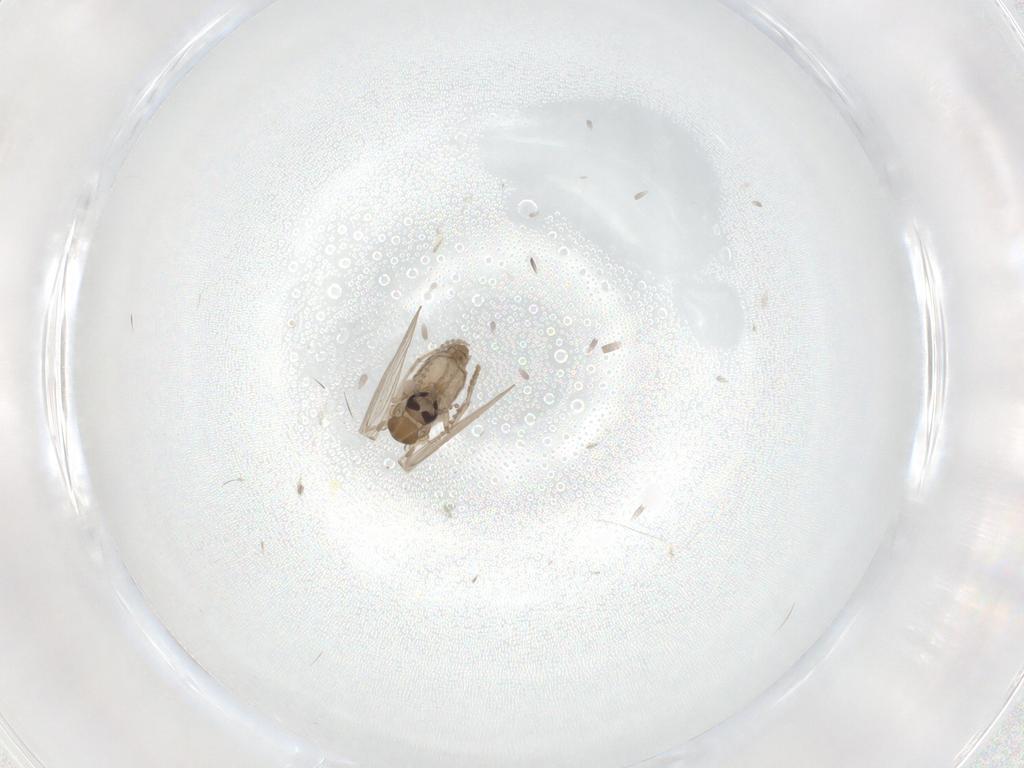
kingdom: Animalia
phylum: Arthropoda
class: Insecta
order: Diptera
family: Psychodidae
